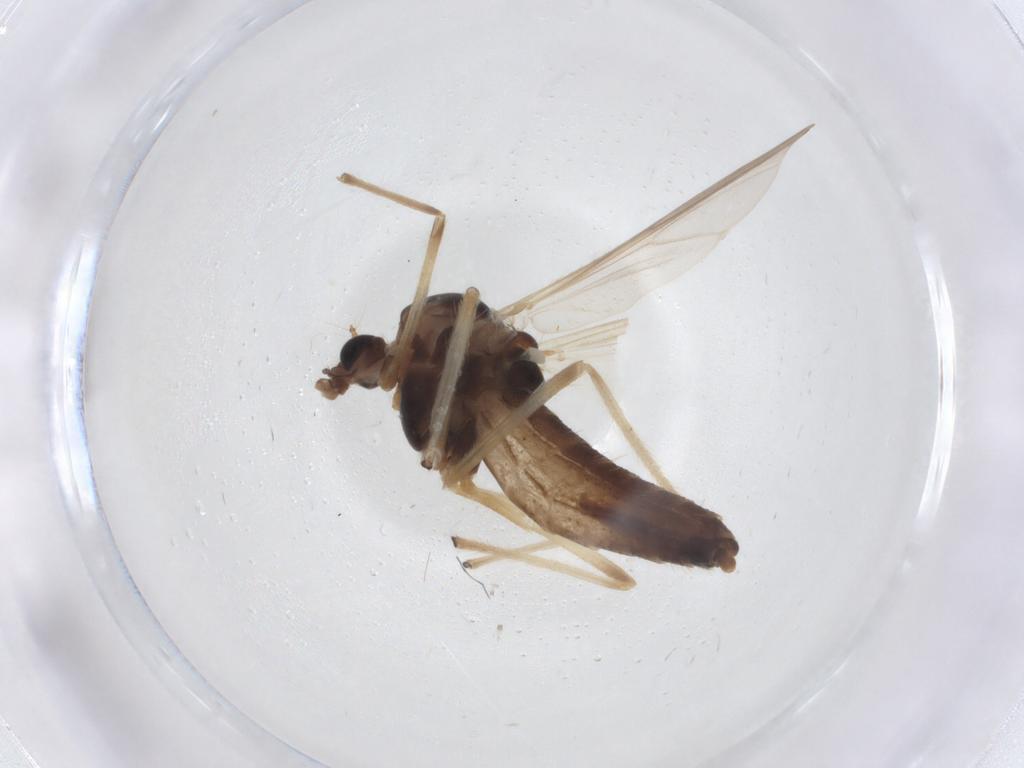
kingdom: Animalia
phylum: Arthropoda
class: Insecta
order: Diptera
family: Chironomidae
